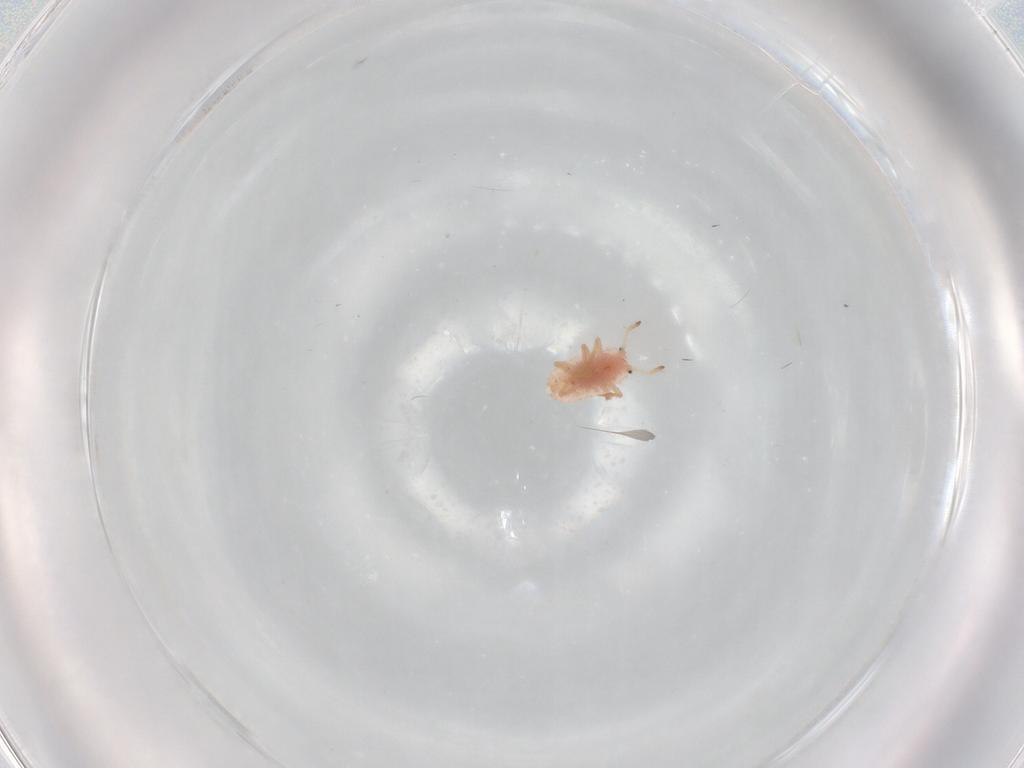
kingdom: Animalia
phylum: Arthropoda
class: Insecta
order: Hemiptera
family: Coccoidea_incertae_sedis
